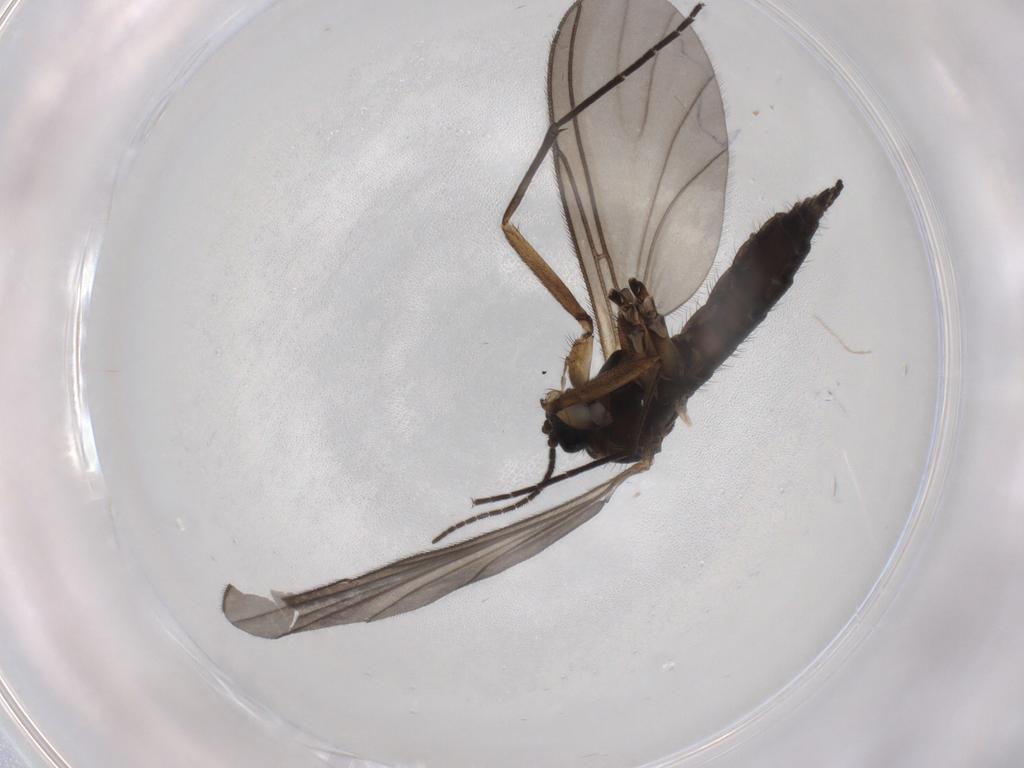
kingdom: Animalia
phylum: Arthropoda
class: Insecta
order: Diptera
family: Sciaridae
